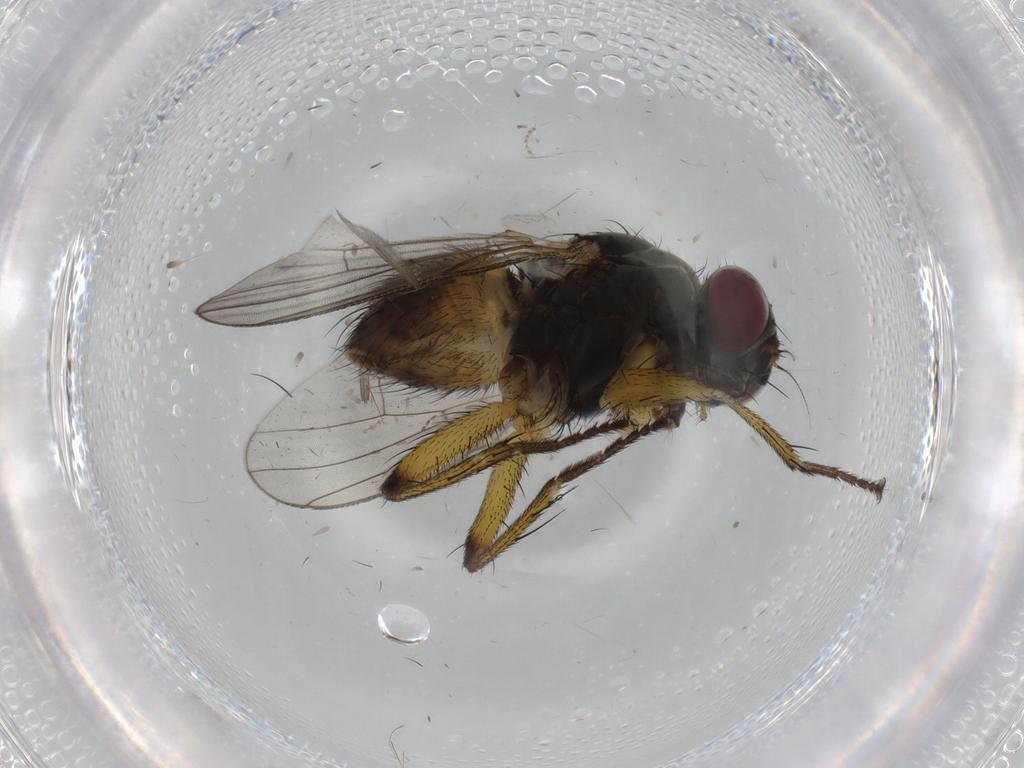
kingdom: Animalia
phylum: Arthropoda
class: Insecta
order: Diptera
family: Muscidae
